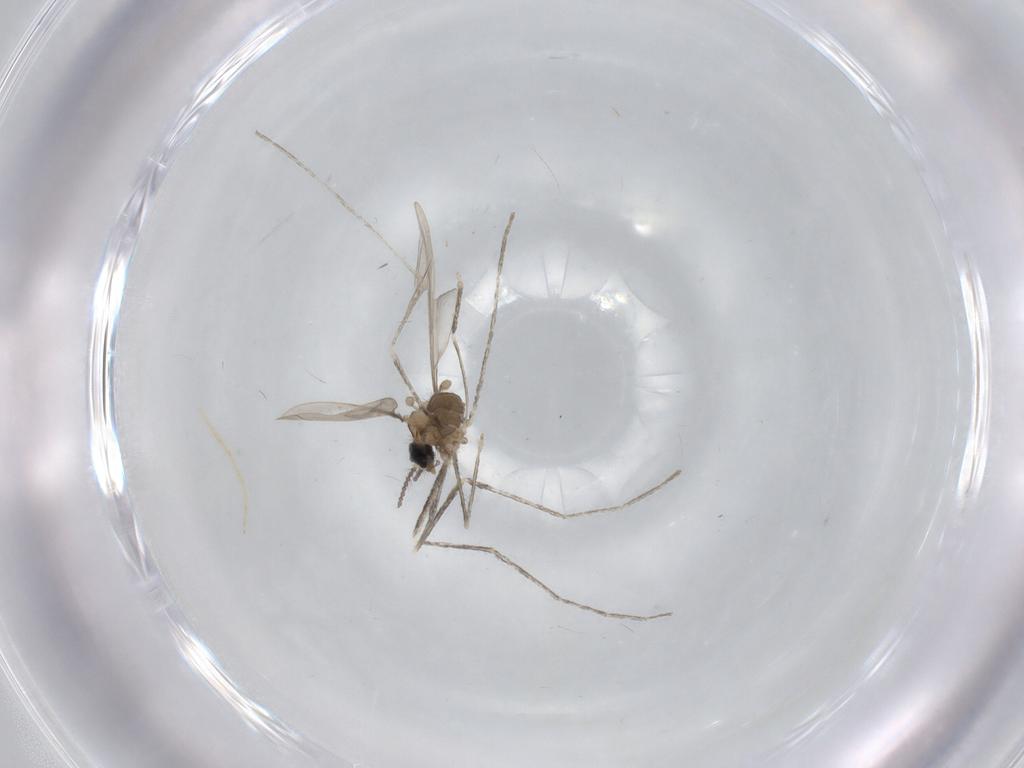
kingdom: Animalia
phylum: Arthropoda
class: Insecta
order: Diptera
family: Cecidomyiidae
